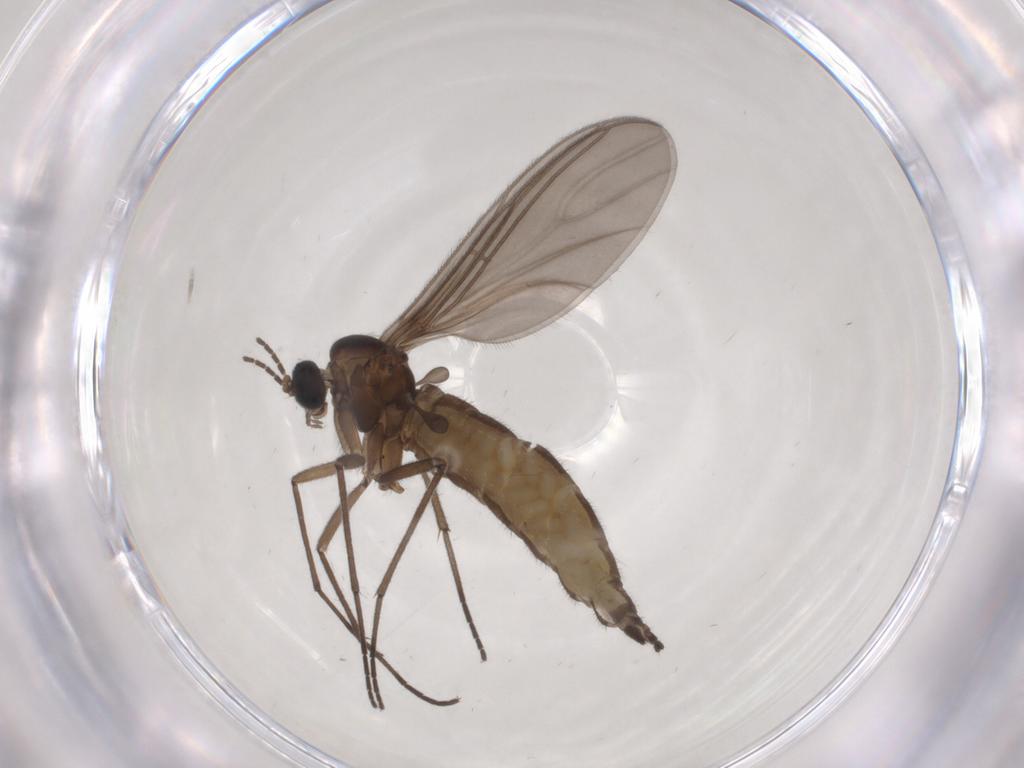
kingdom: Animalia
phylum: Arthropoda
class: Insecta
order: Diptera
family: Sciaridae
